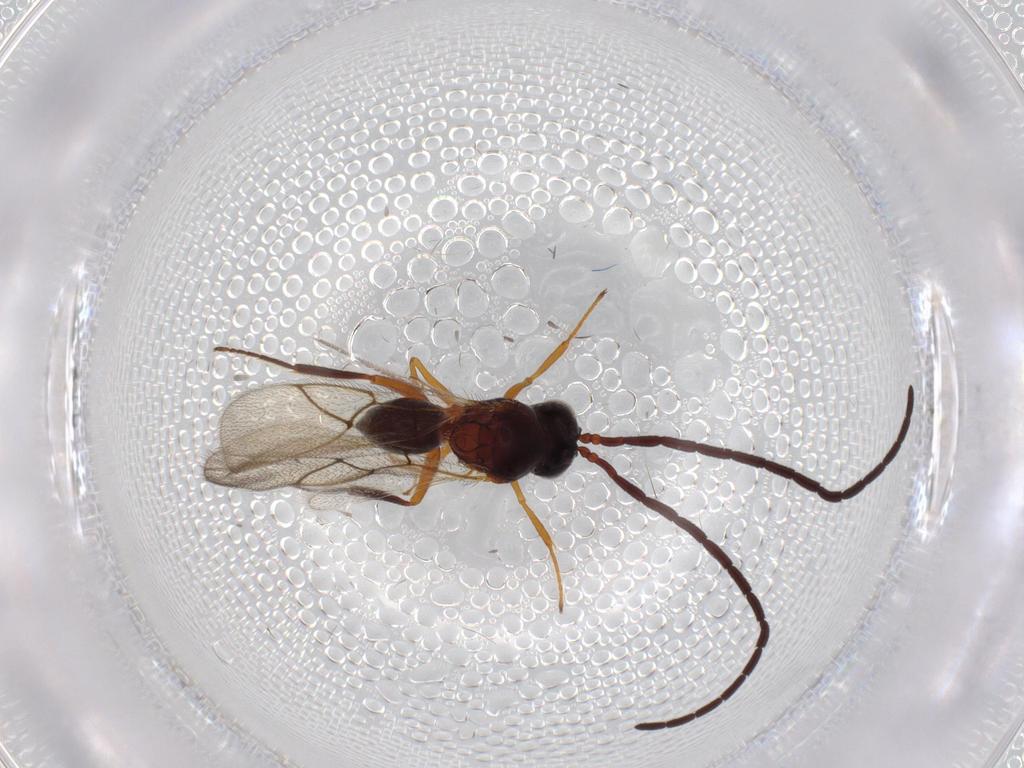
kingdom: Animalia
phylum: Arthropoda
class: Insecta
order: Hymenoptera
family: Figitidae
